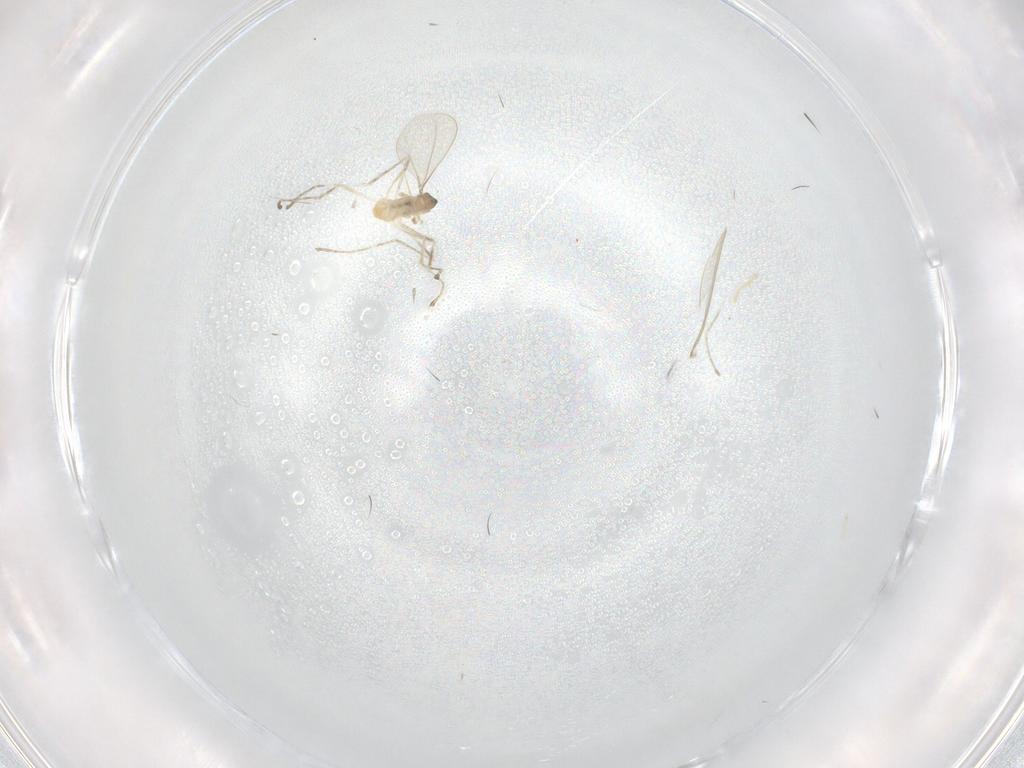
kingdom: Animalia
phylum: Arthropoda
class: Insecta
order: Diptera
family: Cecidomyiidae
